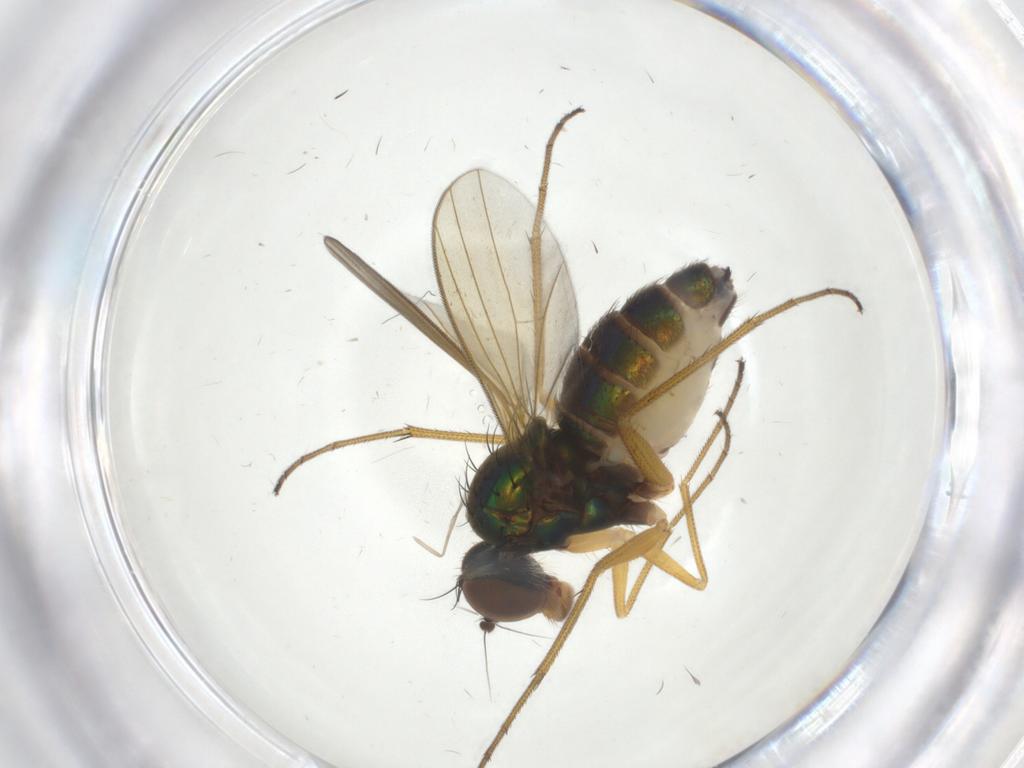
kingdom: Animalia
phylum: Arthropoda
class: Insecta
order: Diptera
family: Dolichopodidae
